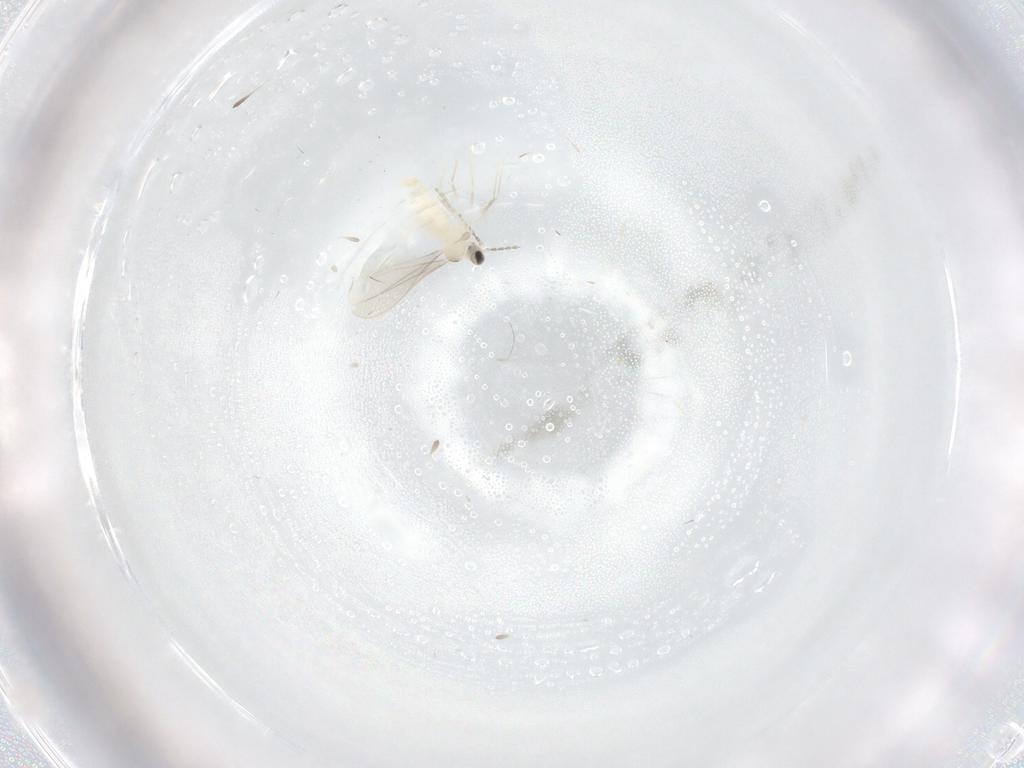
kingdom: Animalia
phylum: Arthropoda
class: Insecta
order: Diptera
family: Cecidomyiidae
